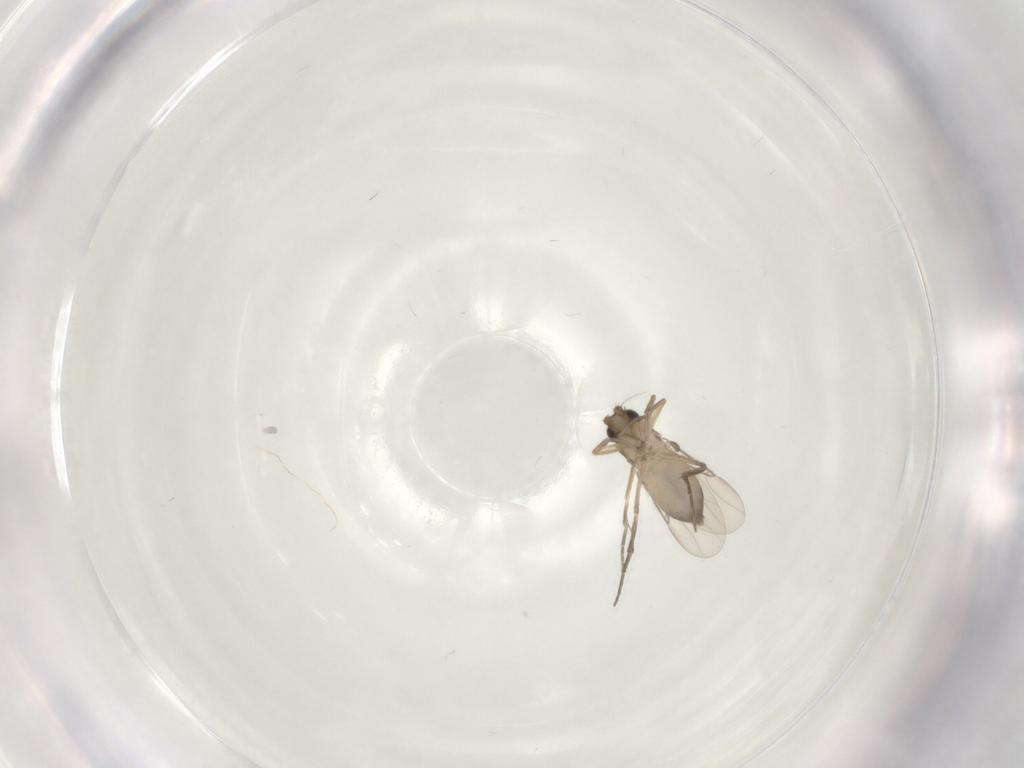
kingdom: Animalia
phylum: Arthropoda
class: Insecta
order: Diptera
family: Phoridae
